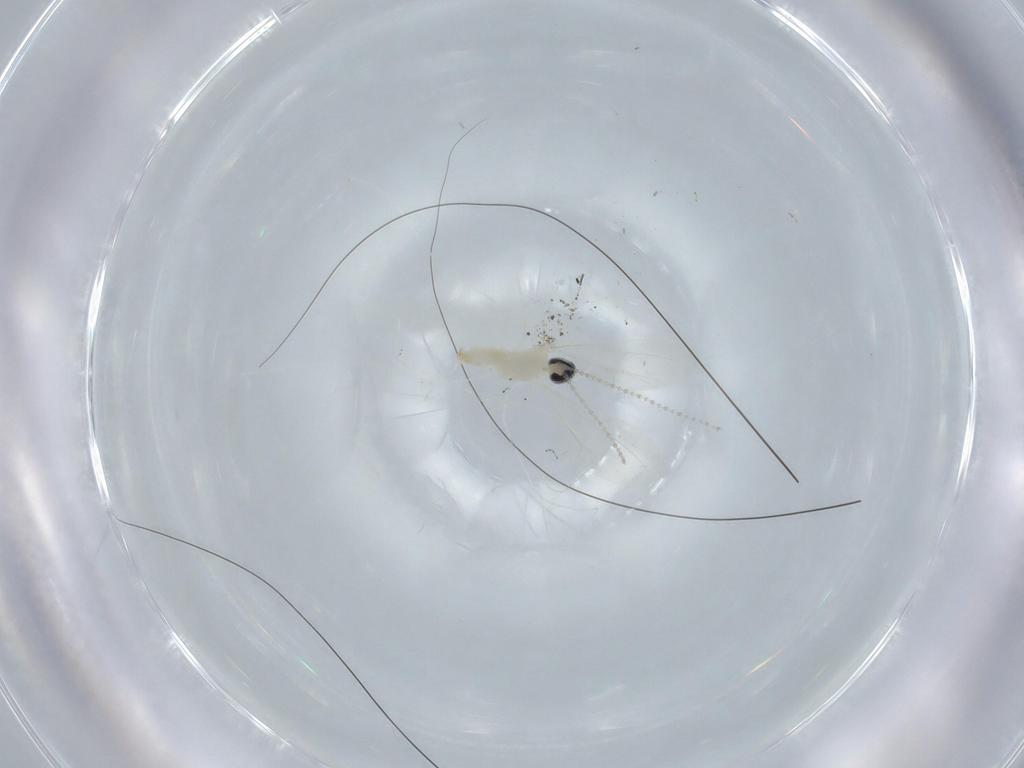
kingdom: Animalia
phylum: Arthropoda
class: Insecta
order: Diptera
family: Cecidomyiidae
